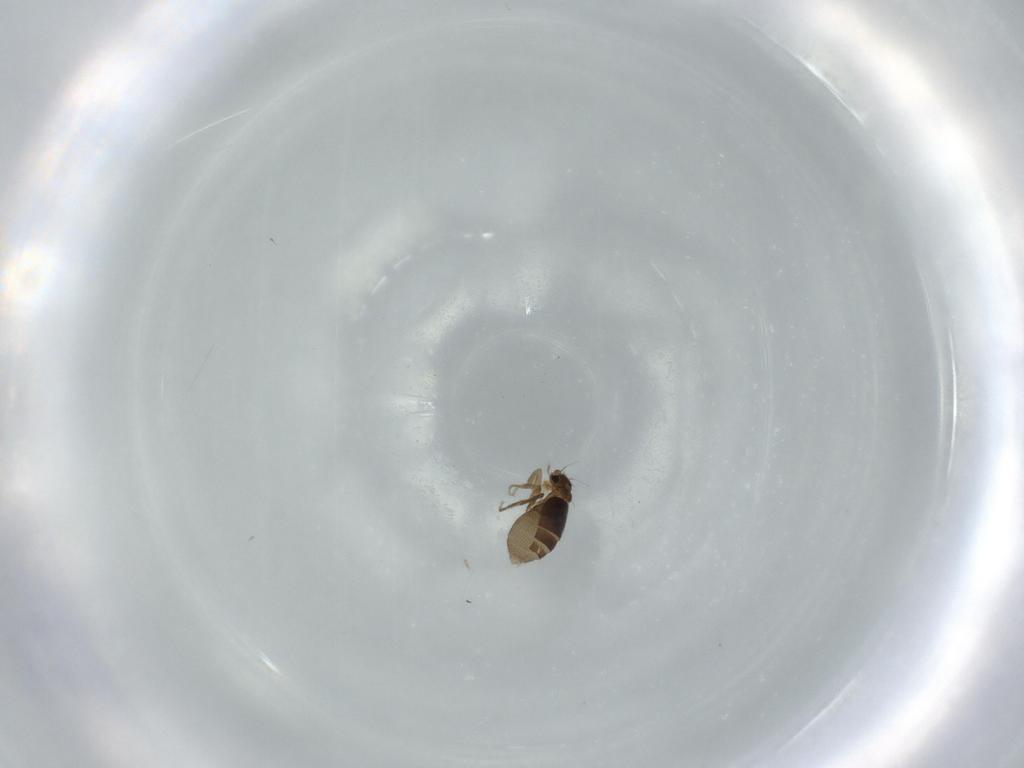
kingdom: Animalia
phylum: Arthropoda
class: Insecta
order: Diptera
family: Phoridae
